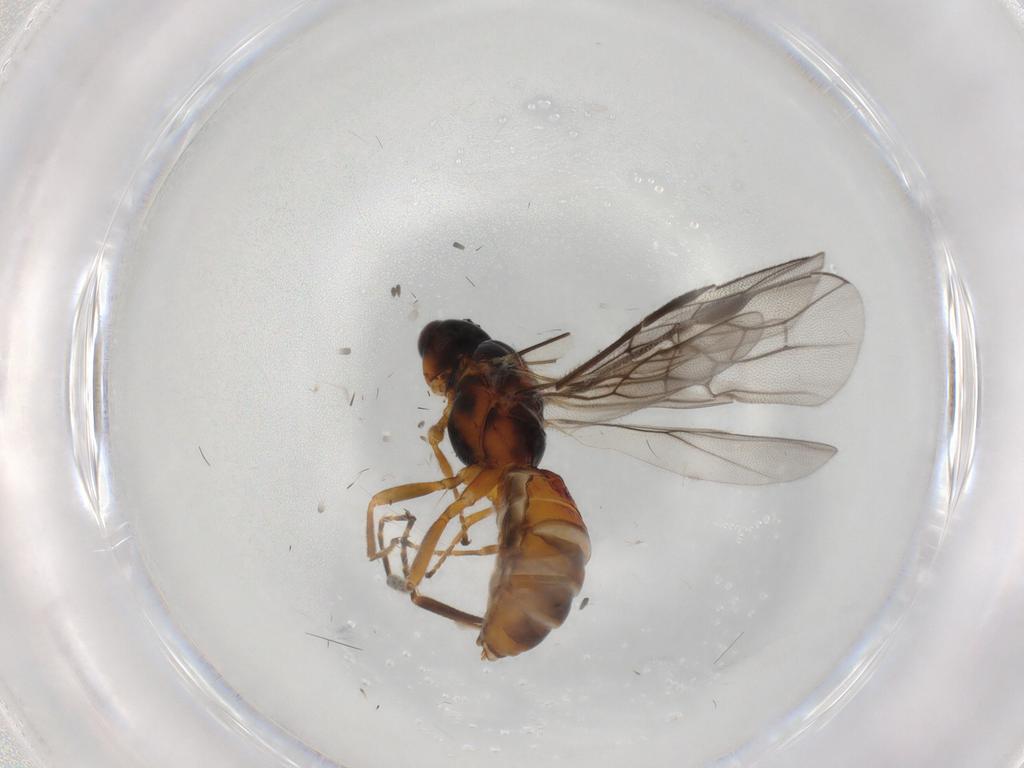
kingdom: Animalia
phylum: Arthropoda
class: Insecta
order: Hymenoptera
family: Braconidae
